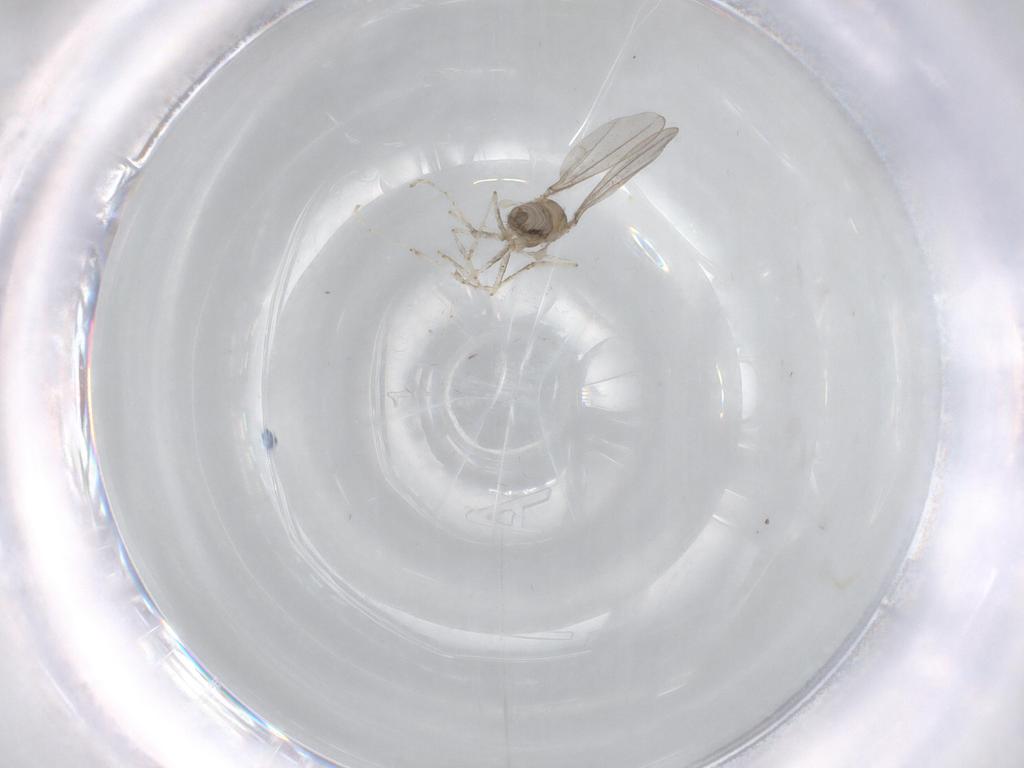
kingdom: Animalia
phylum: Arthropoda
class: Insecta
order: Diptera
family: Cecidomyiidae
